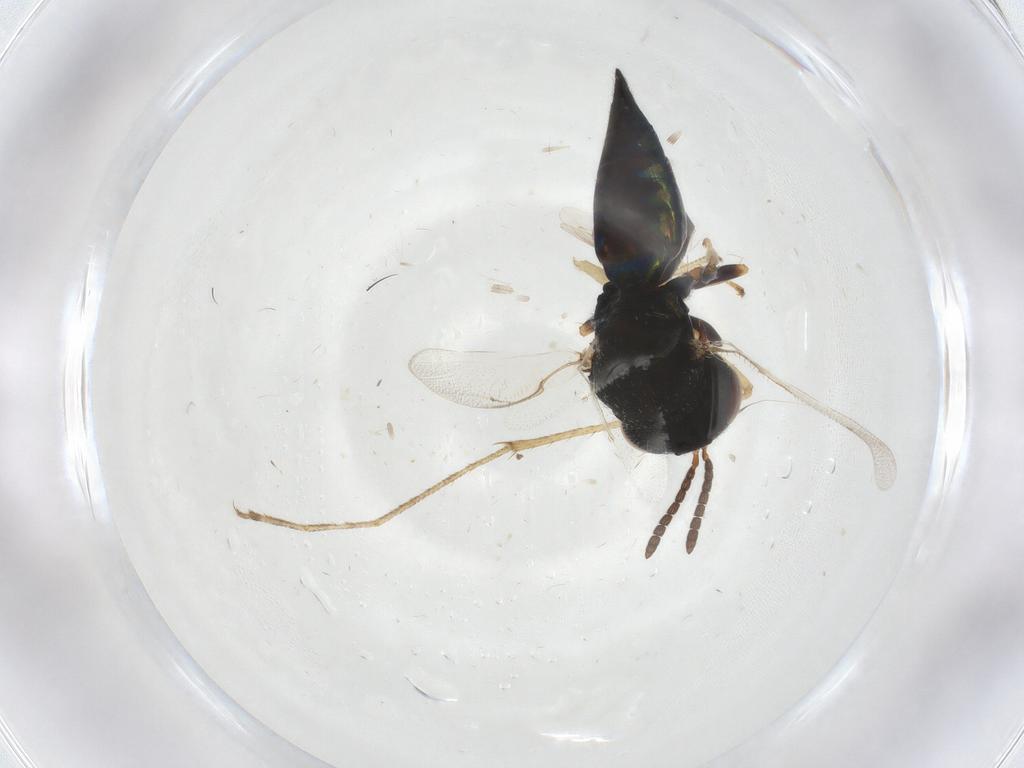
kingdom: Animalia
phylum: Arthropoda
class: Insecta
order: Hymenoptera
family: Pteromalidae
